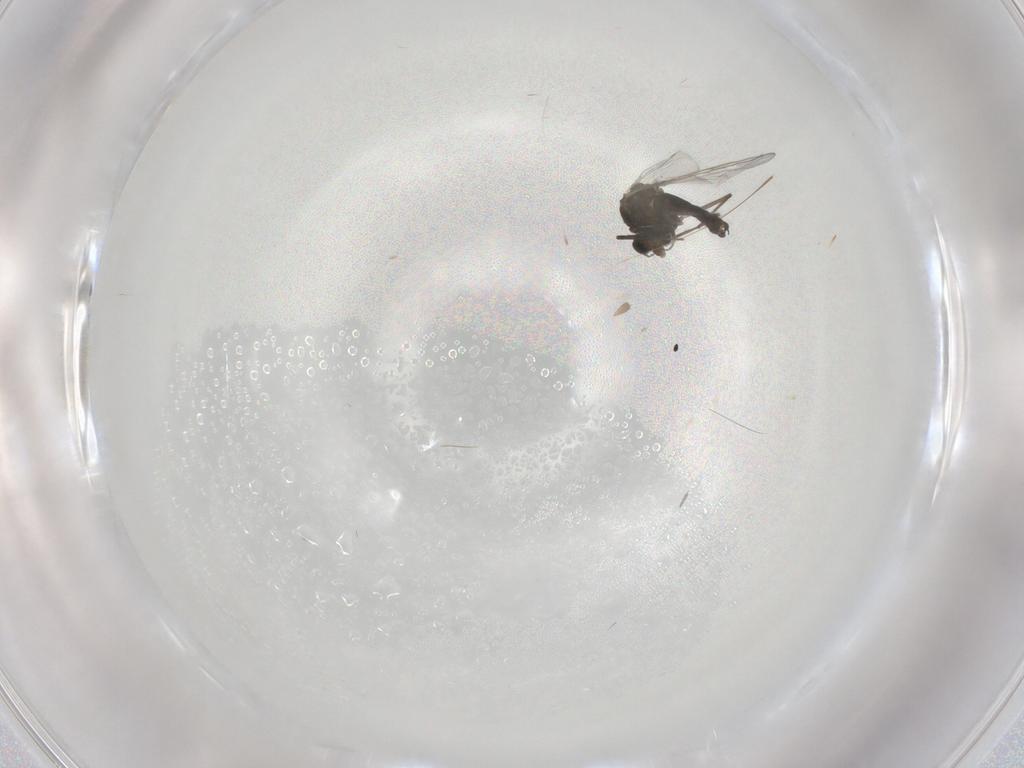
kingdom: Animalia
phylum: Arthropoda
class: Insecta
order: Diptera
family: Chironomidae
